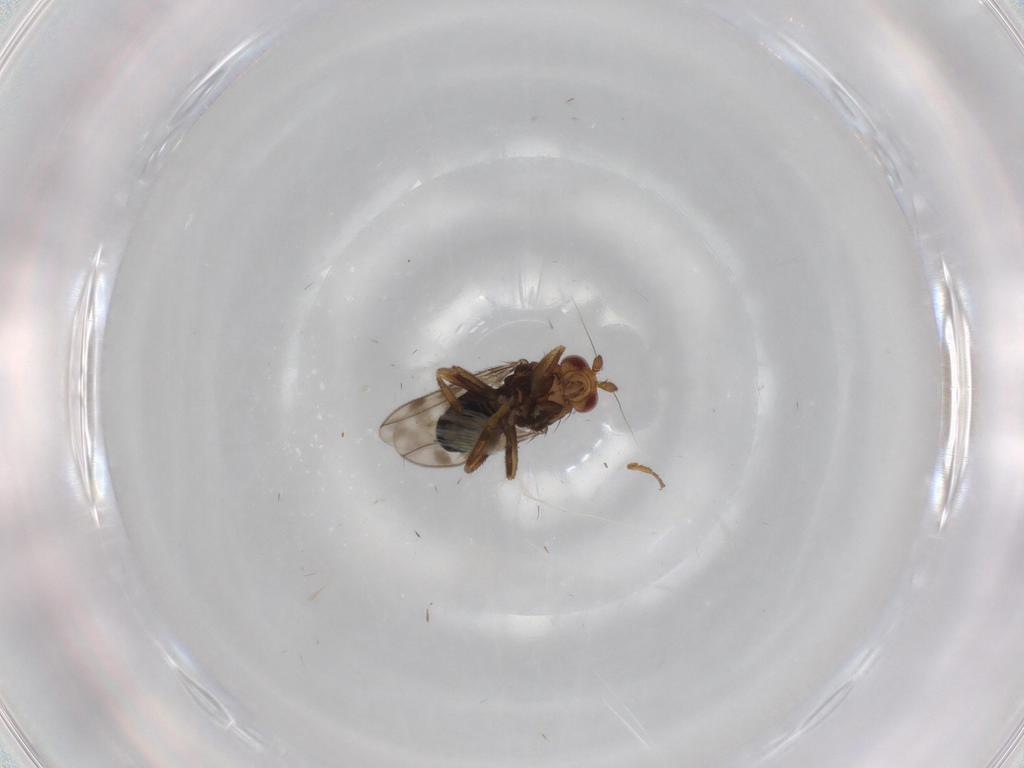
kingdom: Animalia
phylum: Arthropoda
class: Insecta
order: Diptera
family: Sphaeroceridae
